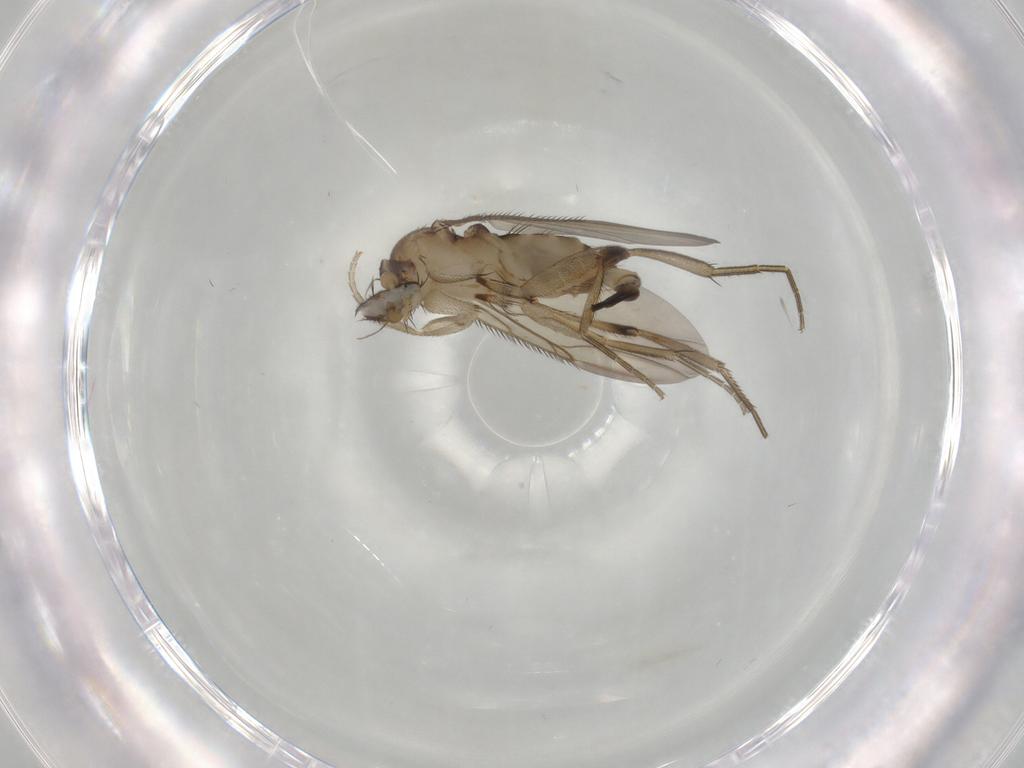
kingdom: Animalia
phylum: Arthropoda
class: Insecta
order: Diptera
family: Phoridae
